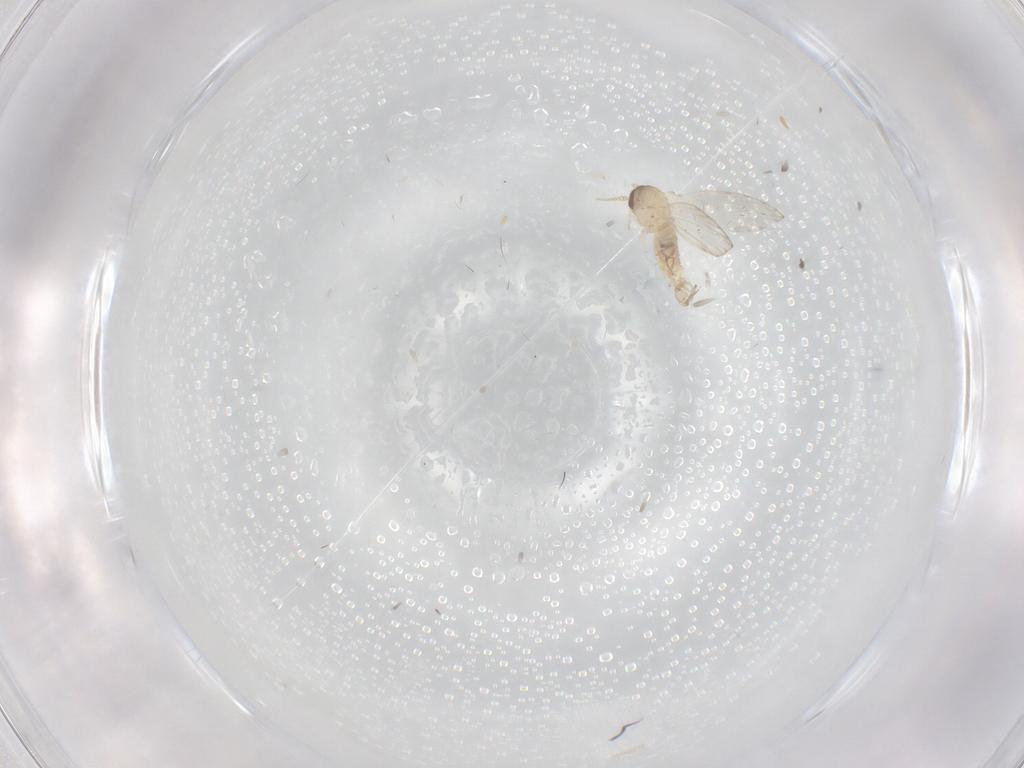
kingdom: Animalia
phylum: Arthropoda
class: Insecta
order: Diptera
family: Psychodidae
